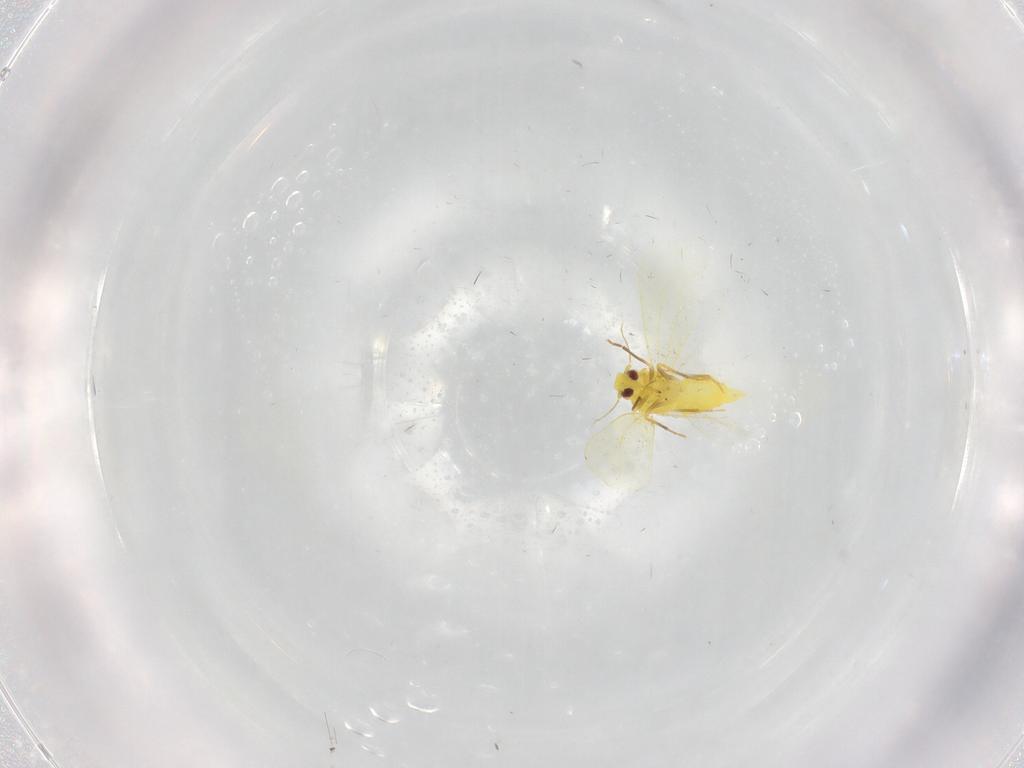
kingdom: Animalia
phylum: Arthropoda
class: Insecta
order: Hemiptera
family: Aleyrodidae
